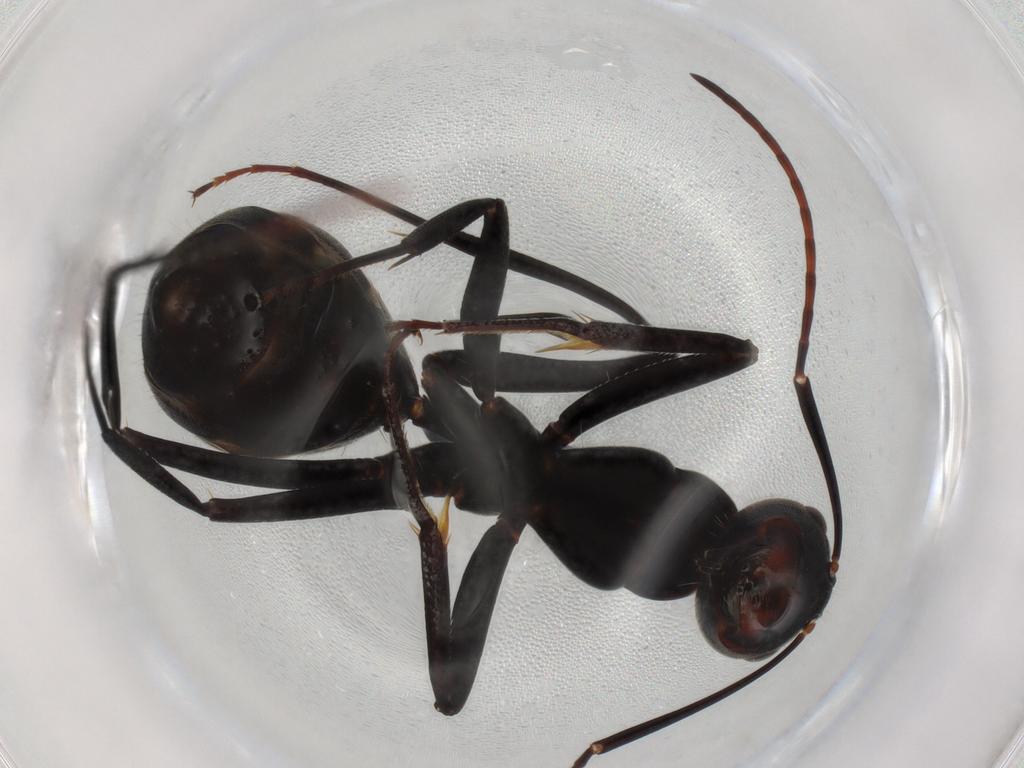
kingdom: Animalia
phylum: Arthropoda
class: Insecta
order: Hymenoptera
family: Formicidae
